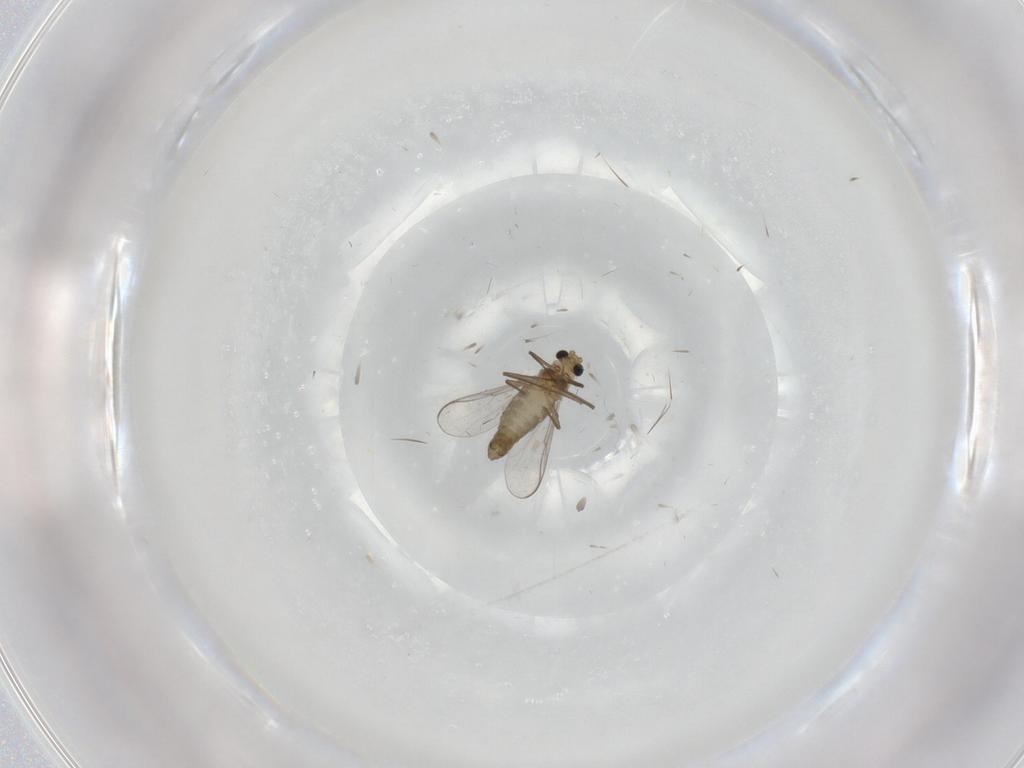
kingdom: Animalia
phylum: Arthropoda
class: Insecta
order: Diptera
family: Chironomidae
